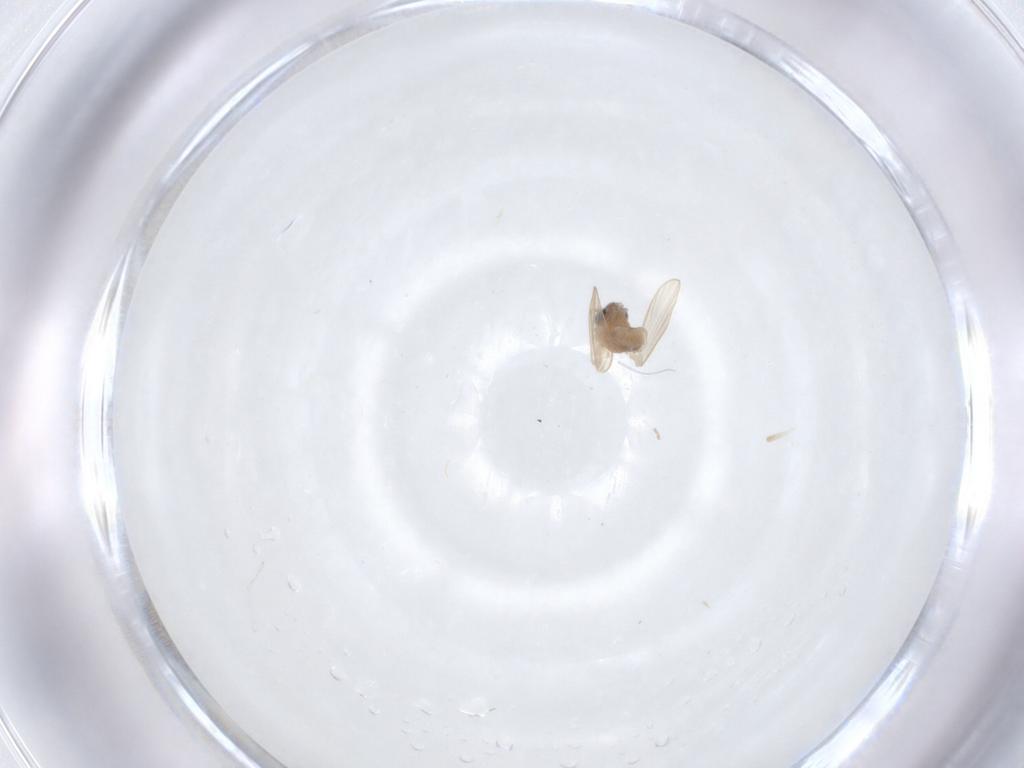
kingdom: Animalia
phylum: Arthropoda
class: Insecta
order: Diptera
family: Psychodidae
